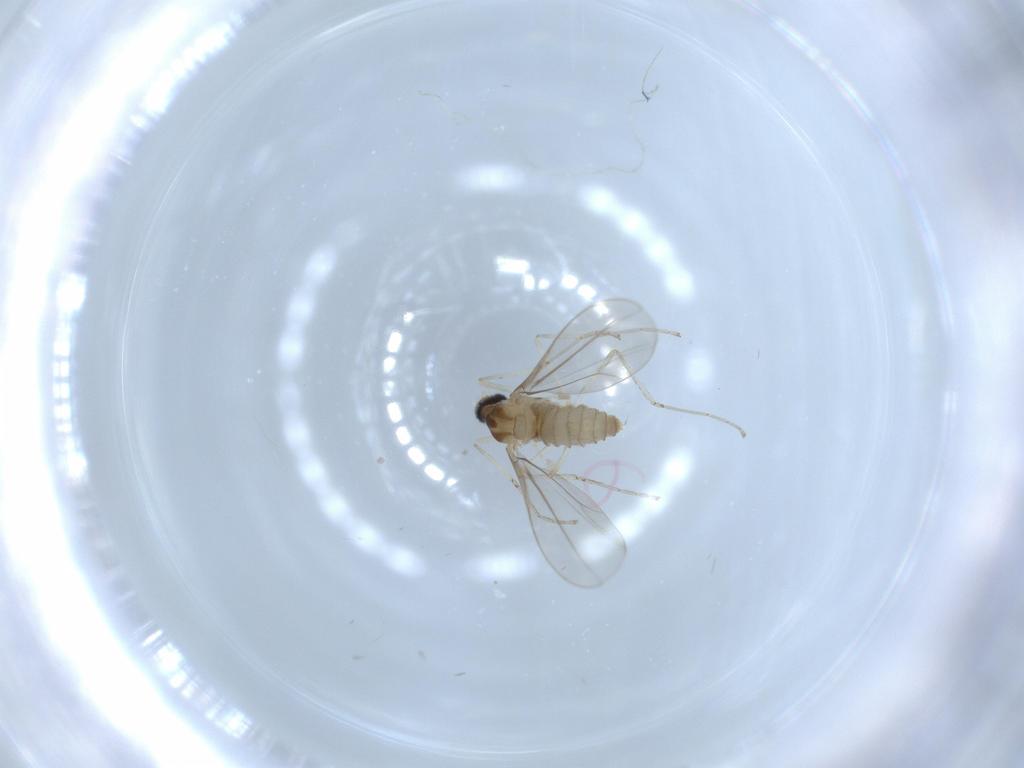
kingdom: Animalia
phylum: Arthropoda
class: Insecta
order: Diptera
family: Cecidomyiidae
